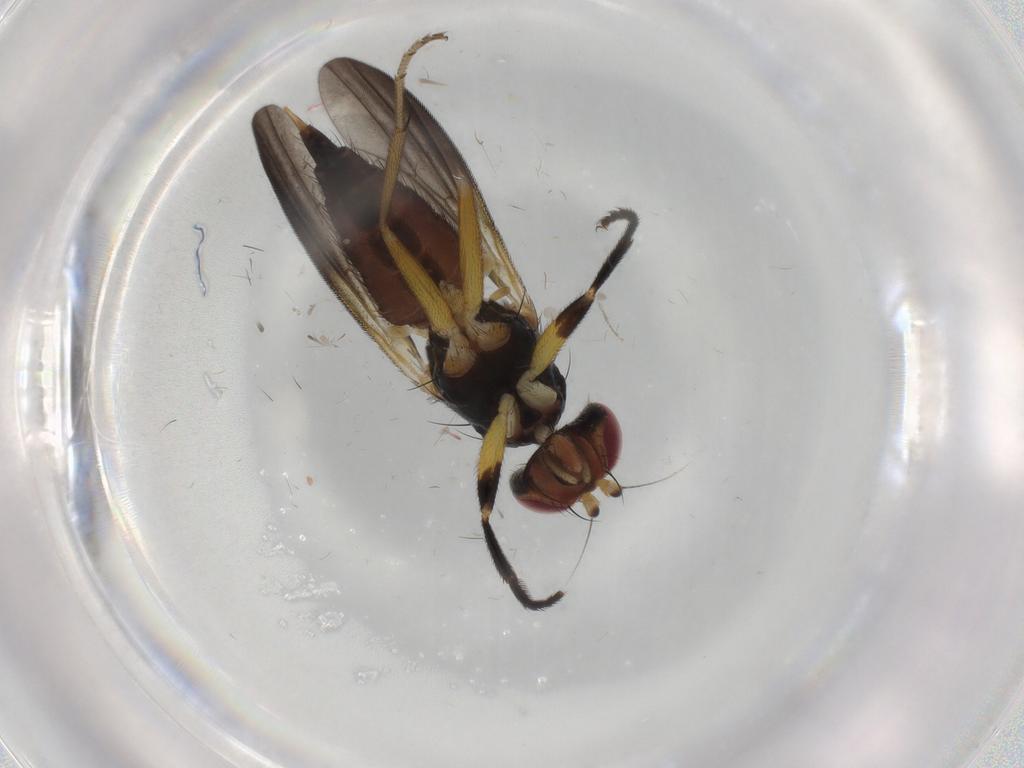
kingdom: Animalia
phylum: Arthropoda
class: Insecta
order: Diptera
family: Clusiidae
